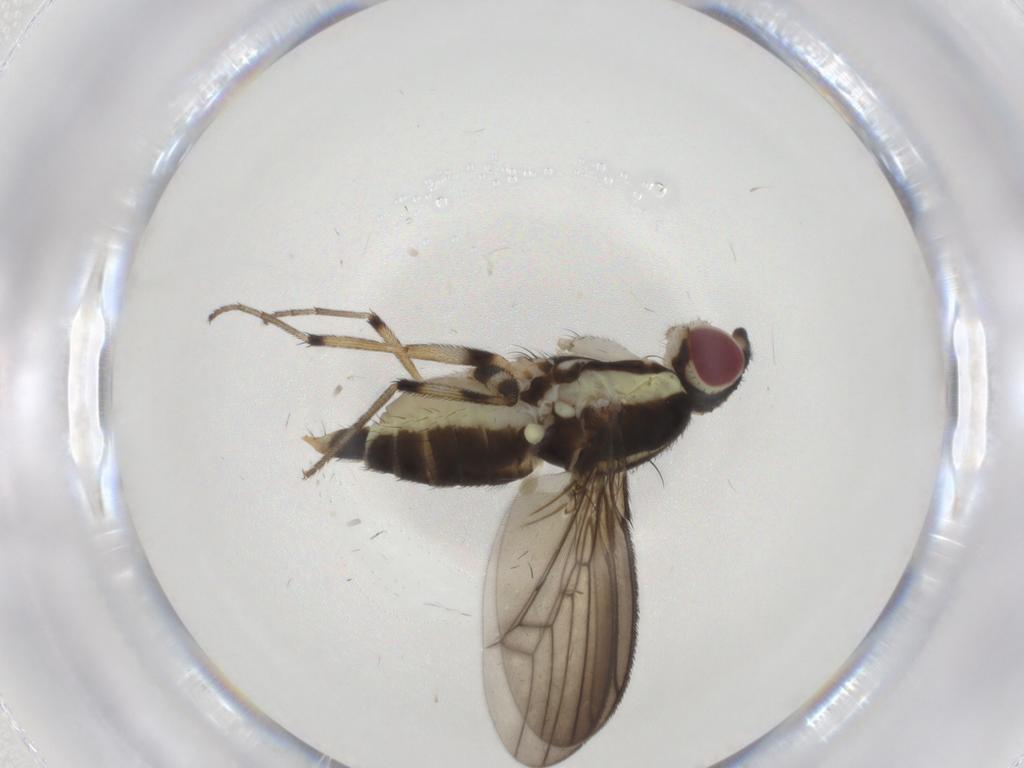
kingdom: Animalia
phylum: Arthropoda
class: Insecta
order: Diptera
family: Pseudopomyzidae
